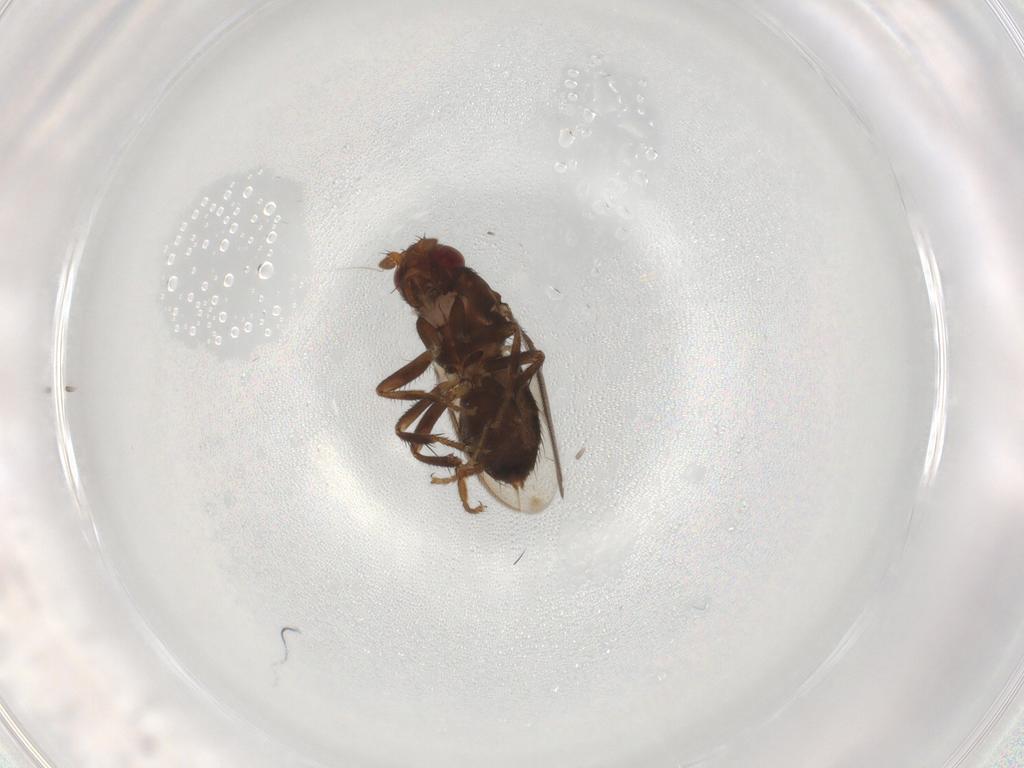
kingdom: Animalia
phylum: Arthropoda
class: Insecta
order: Diptera
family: Sphaeroceridae
